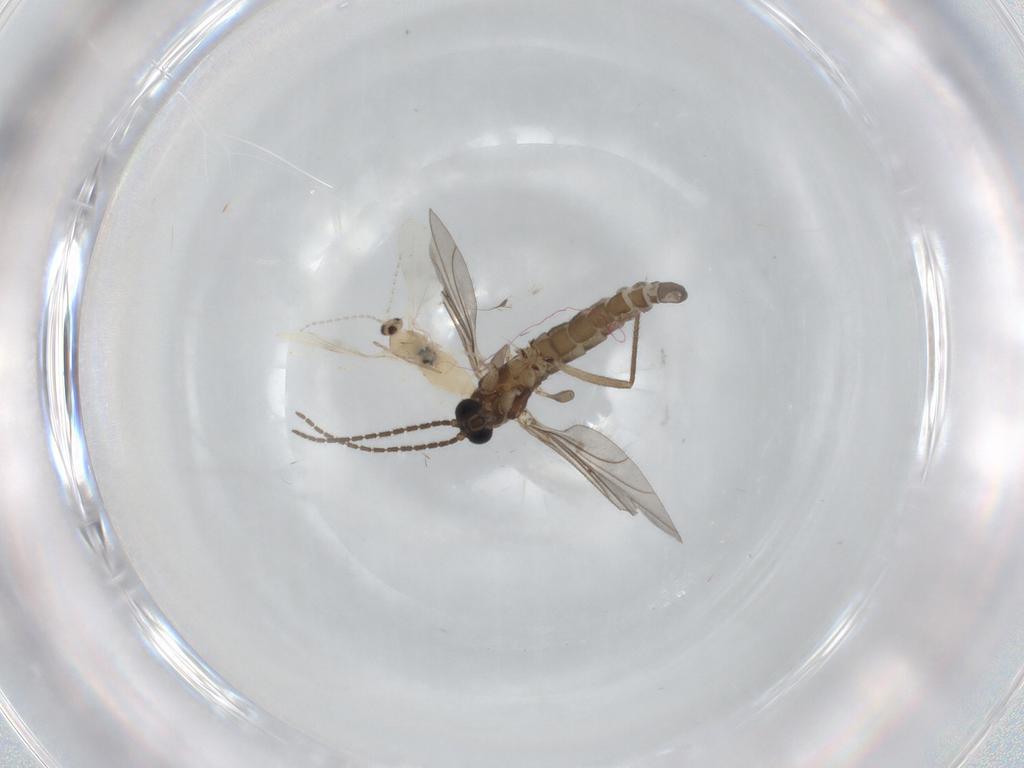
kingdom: Animalia
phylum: Arthropoda
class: Insecta
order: Diptera
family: Sciaridae
